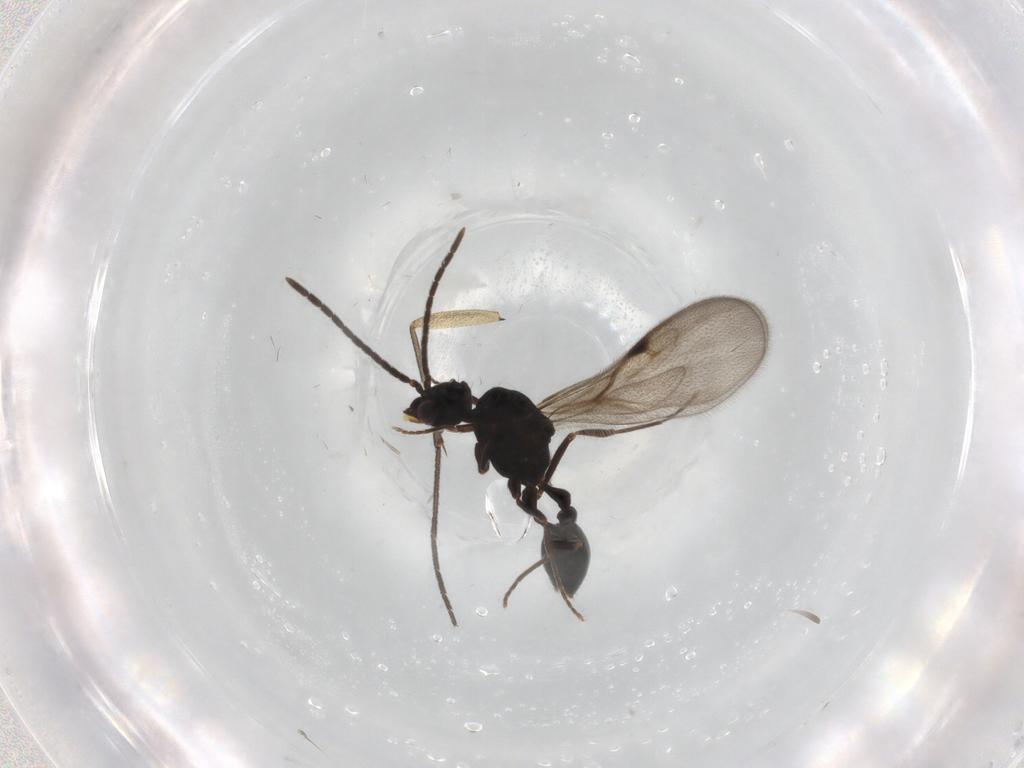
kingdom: Animalia
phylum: Arthropoda
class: Insecta
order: Hymenoptera
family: Formicidae
